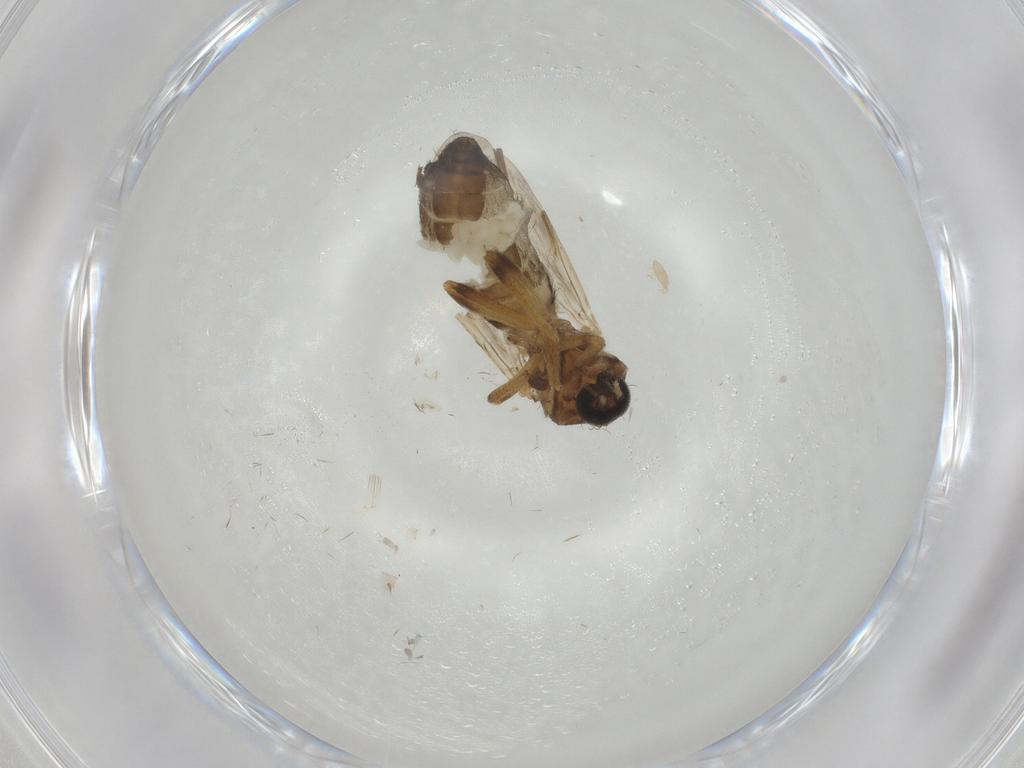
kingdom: Animalia
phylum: Arthropoda
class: Insecta
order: Diptera
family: Ceratopogonidae
